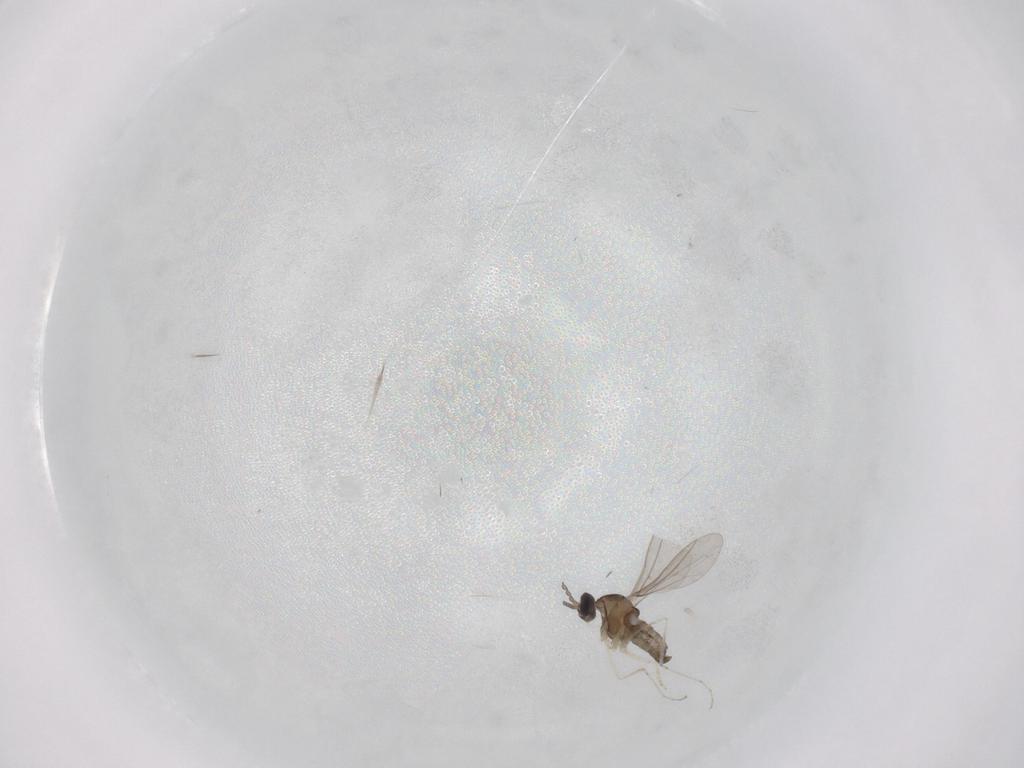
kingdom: Animalia
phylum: Arthropoda
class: Insecta
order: Diptera
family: Cecidomyiidae
